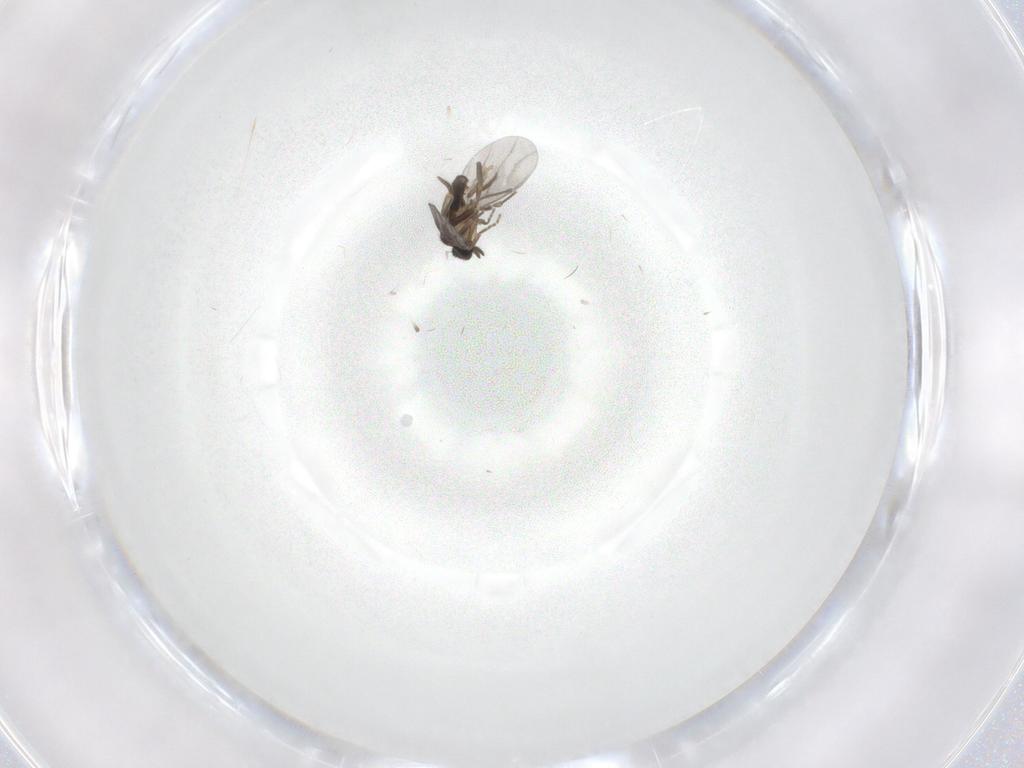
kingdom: Animalia
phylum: Arthropoda
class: Insecta
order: Diptera
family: Cecidomyiidae
